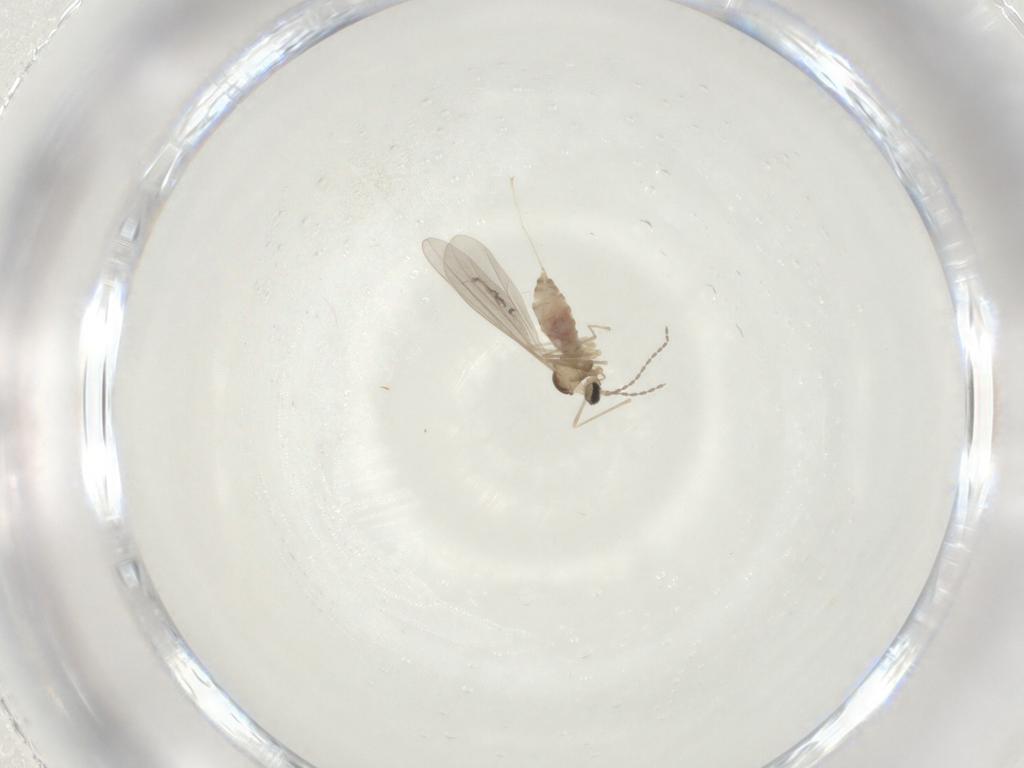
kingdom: Animalia
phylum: Arthropoda
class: Insecta
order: Diptera
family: Cecidomyiidae
